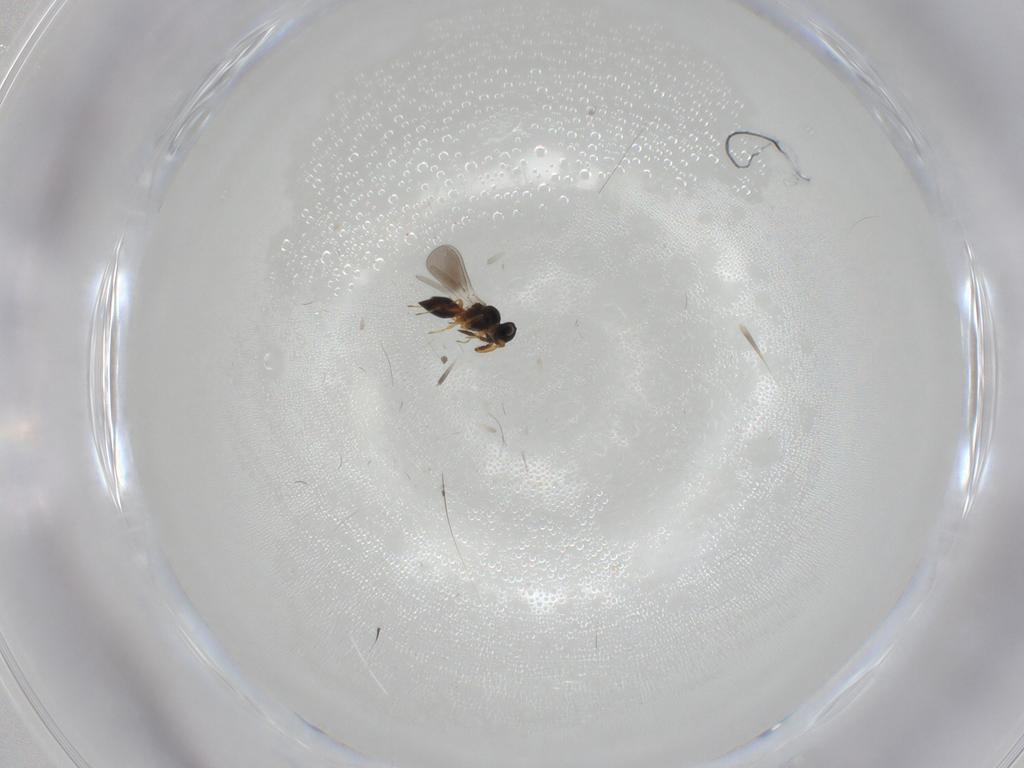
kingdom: Animalia
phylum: Arthropoda
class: Insecta
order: Hymenoptera
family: Platygastridae
